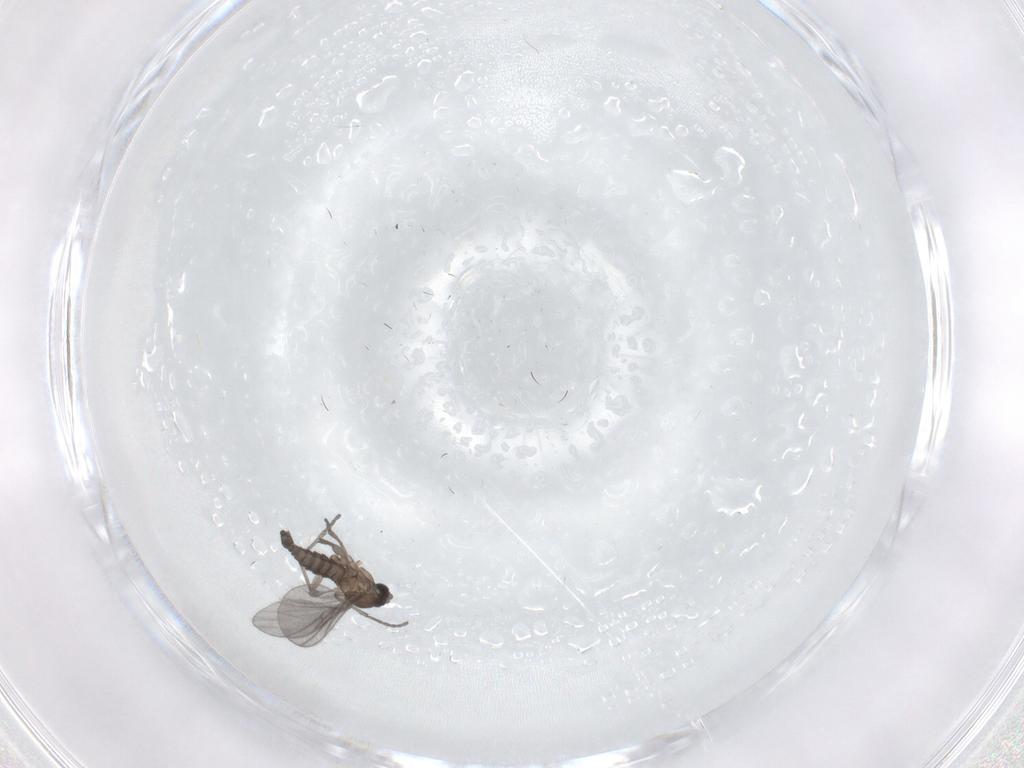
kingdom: Animalia
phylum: Arthropoda
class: Insecta
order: Diptera
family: Sciaridae
